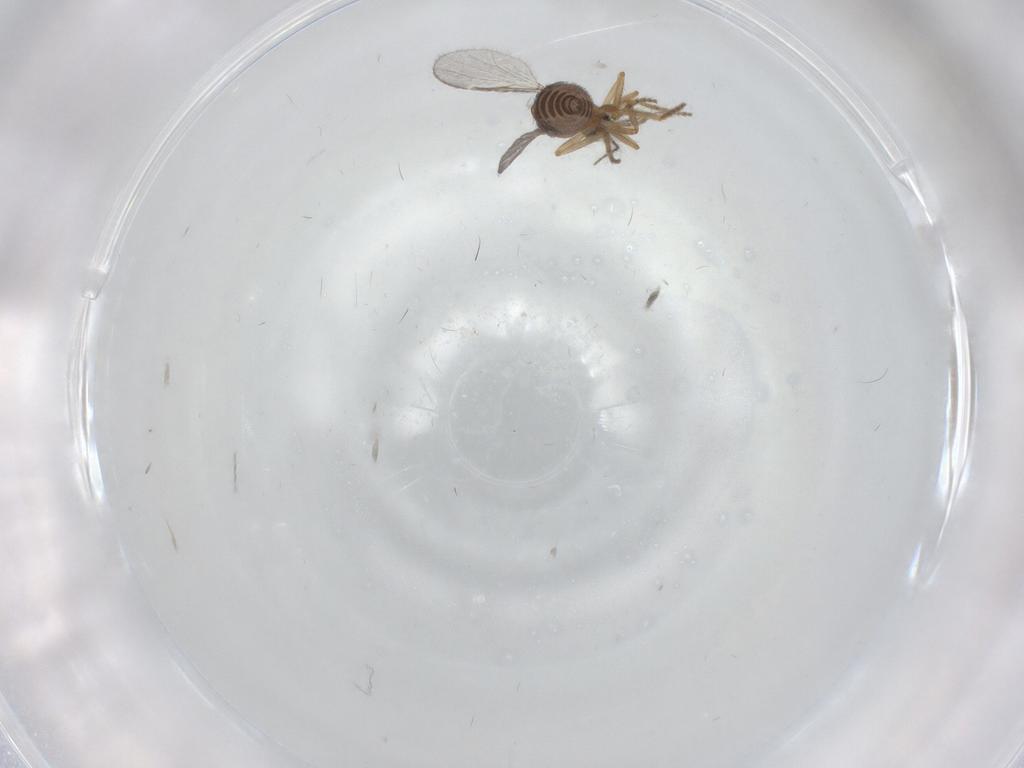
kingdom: Animalia
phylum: Arthropoda
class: Insecta
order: Diptera
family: Ceratopogonidae
